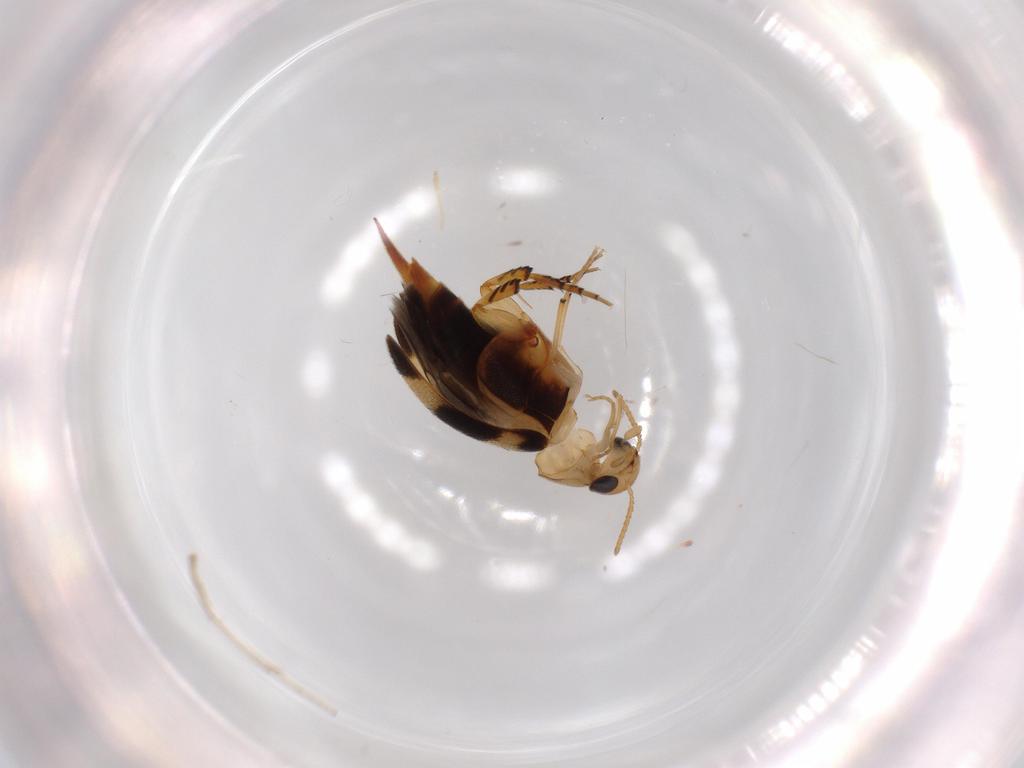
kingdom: Animalia
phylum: Arthropoda
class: Insecta
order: Coleoptera
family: Mordellidae
